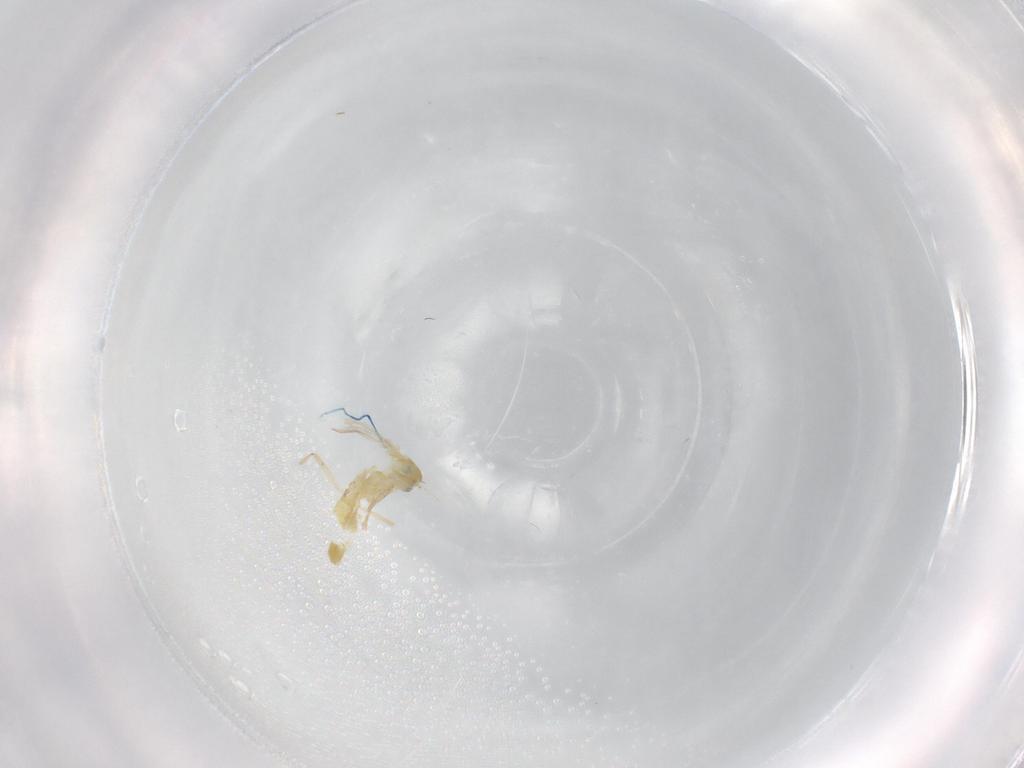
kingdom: Animalia
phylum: Arthropoda
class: Insecta
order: Diptera
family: Chironomidae
